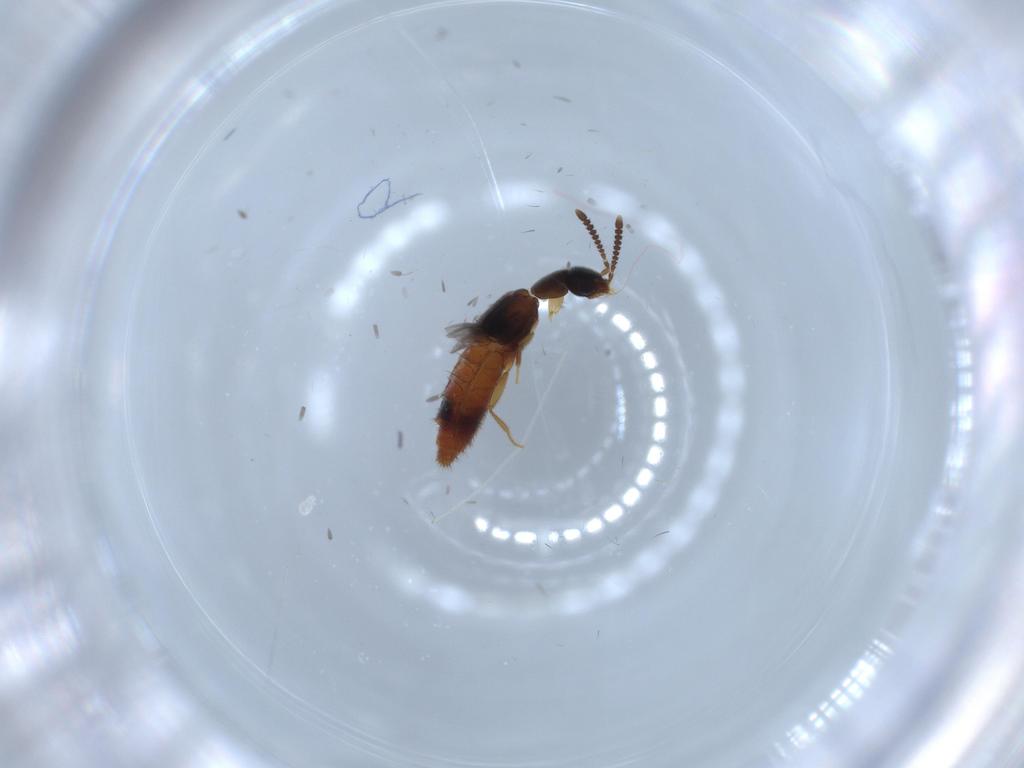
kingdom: Animalia
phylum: Arthropoda
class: Insecta
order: Coleoptera
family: Staphylinidae
